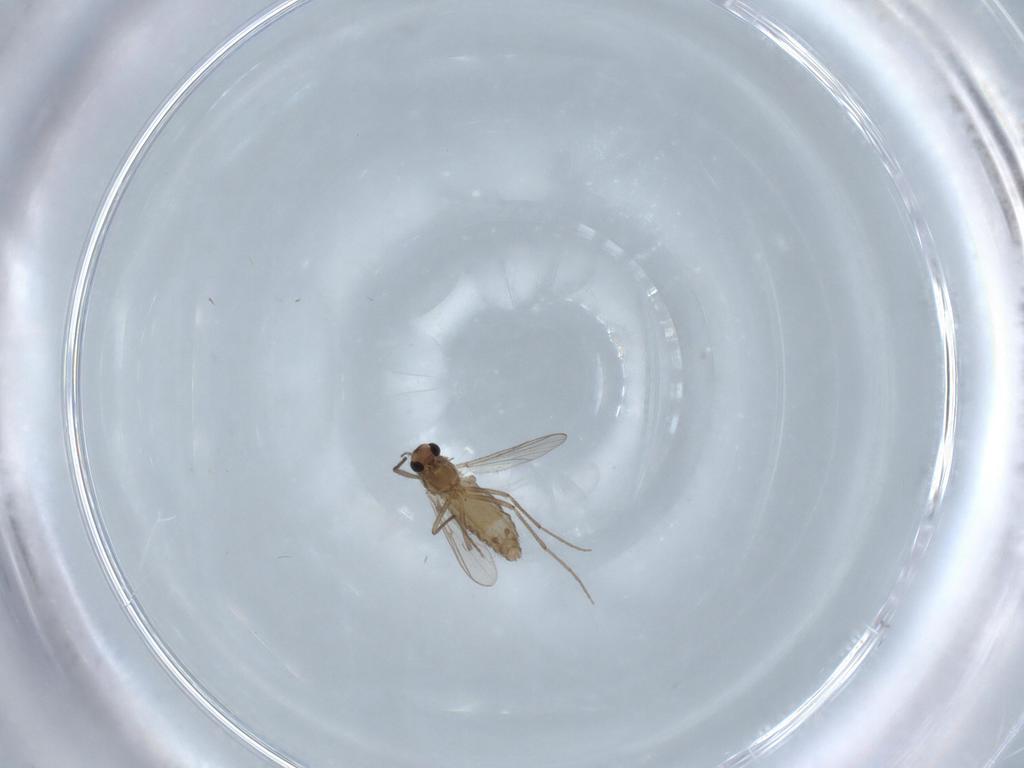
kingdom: Animalia
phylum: Arthropoda
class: Insecta
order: Diptera
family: Chironomidae
